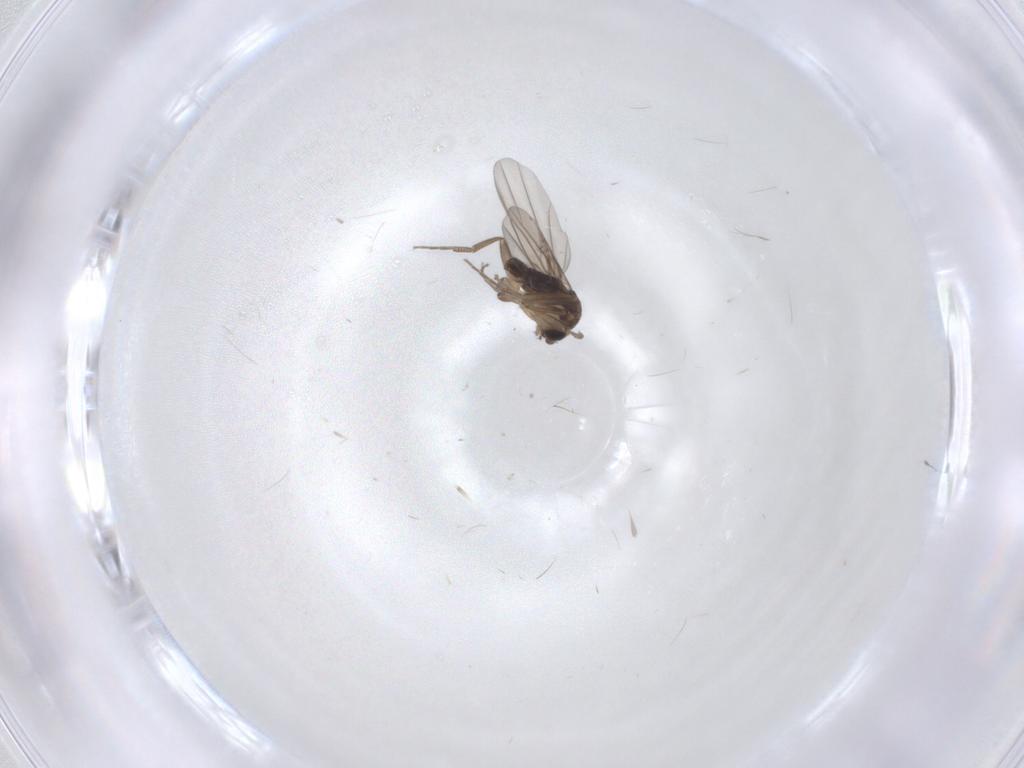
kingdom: Animalia
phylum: Arthropoda
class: Insecta
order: Diptera
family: Phoridae
